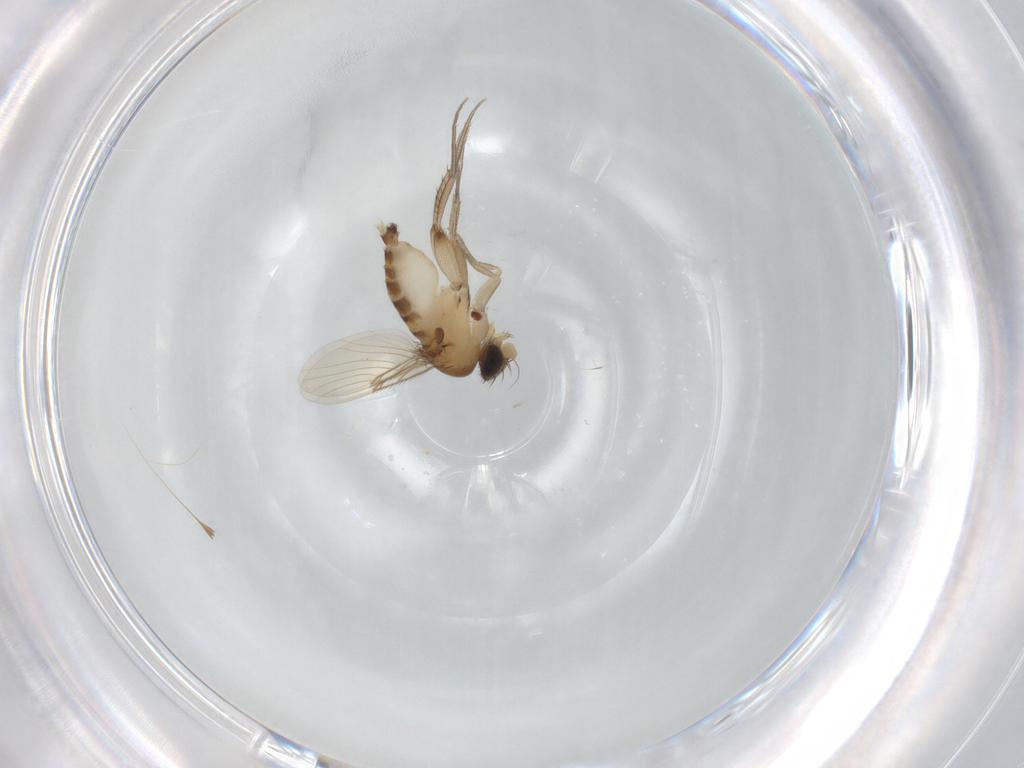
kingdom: Animalia
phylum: Arthropoda
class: Insecta
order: Diptera
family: Phoridae
